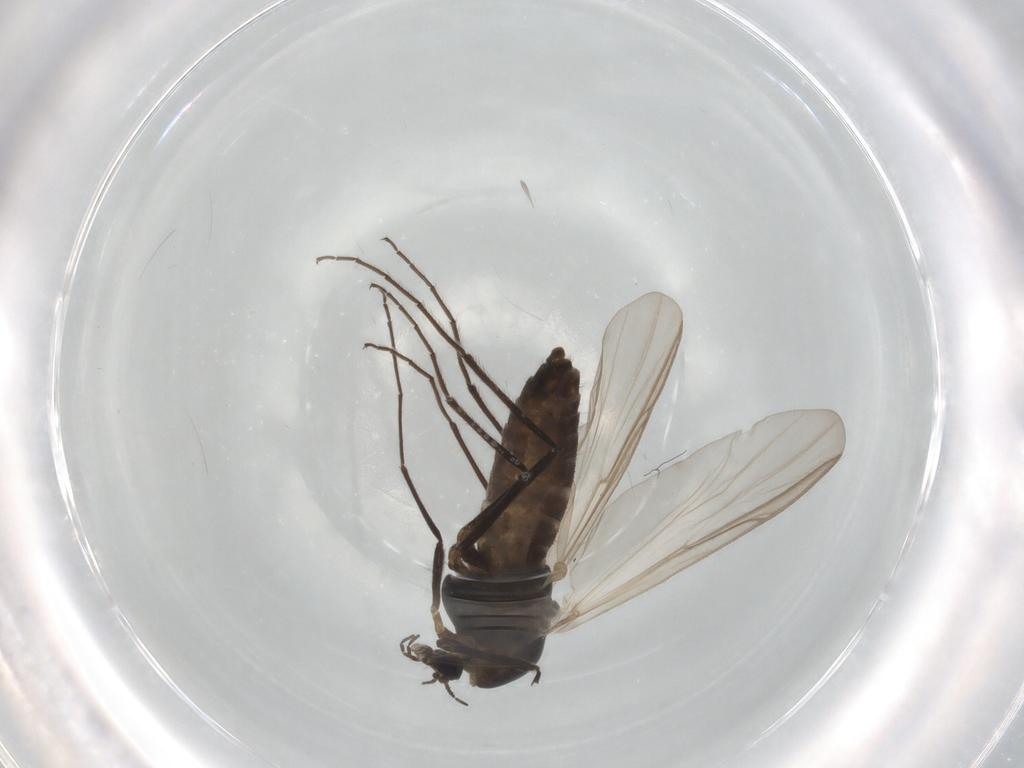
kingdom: Animalia
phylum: Arthropoda
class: Insecta
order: Diptera
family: Chironomidae
